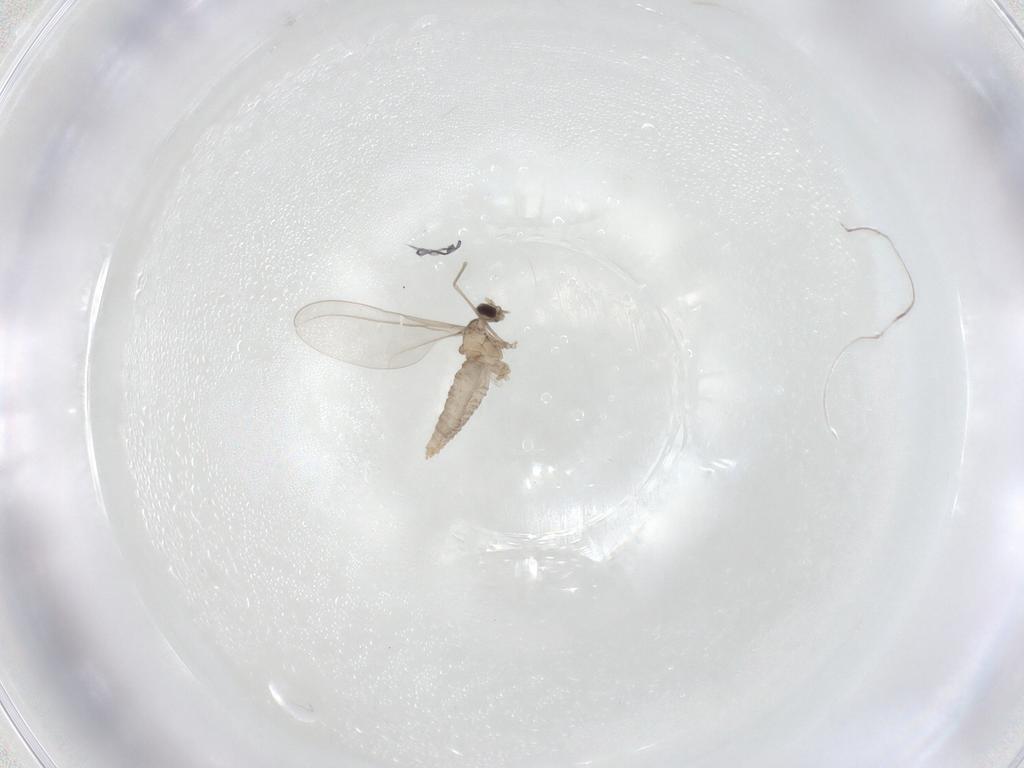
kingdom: Animalia
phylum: Arthropoda
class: Insecta
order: Diptera
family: Cecidomyiidae
